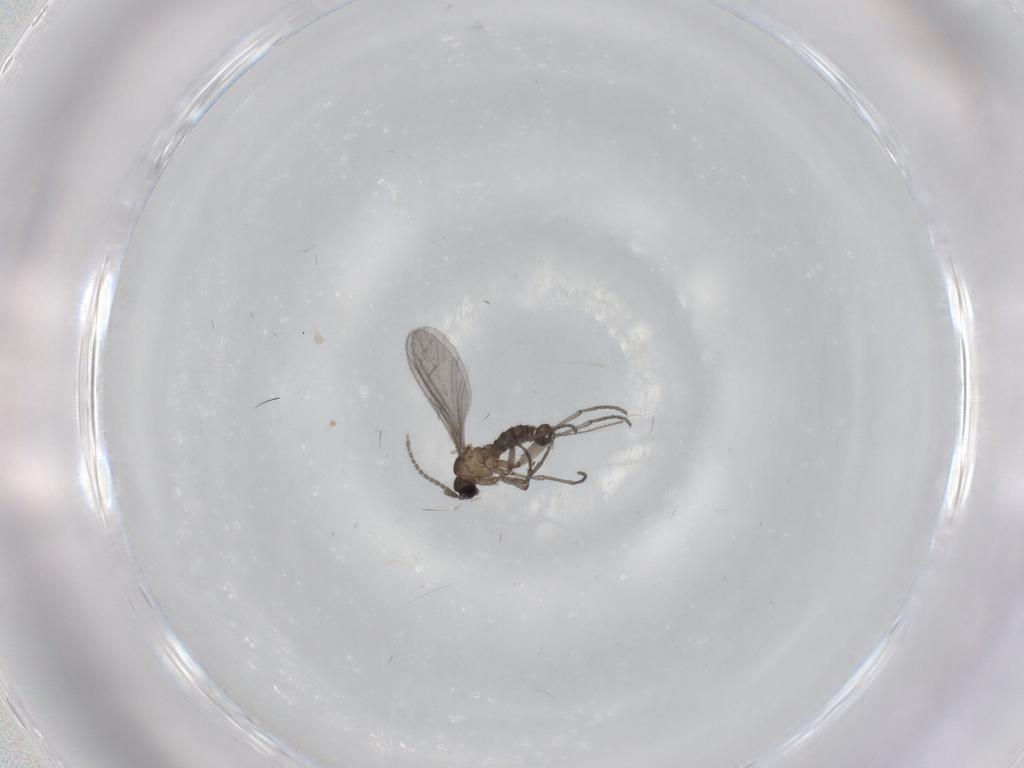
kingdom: Animalia
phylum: Arthropoda
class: Insecta
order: Diptera
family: Sciaridae
